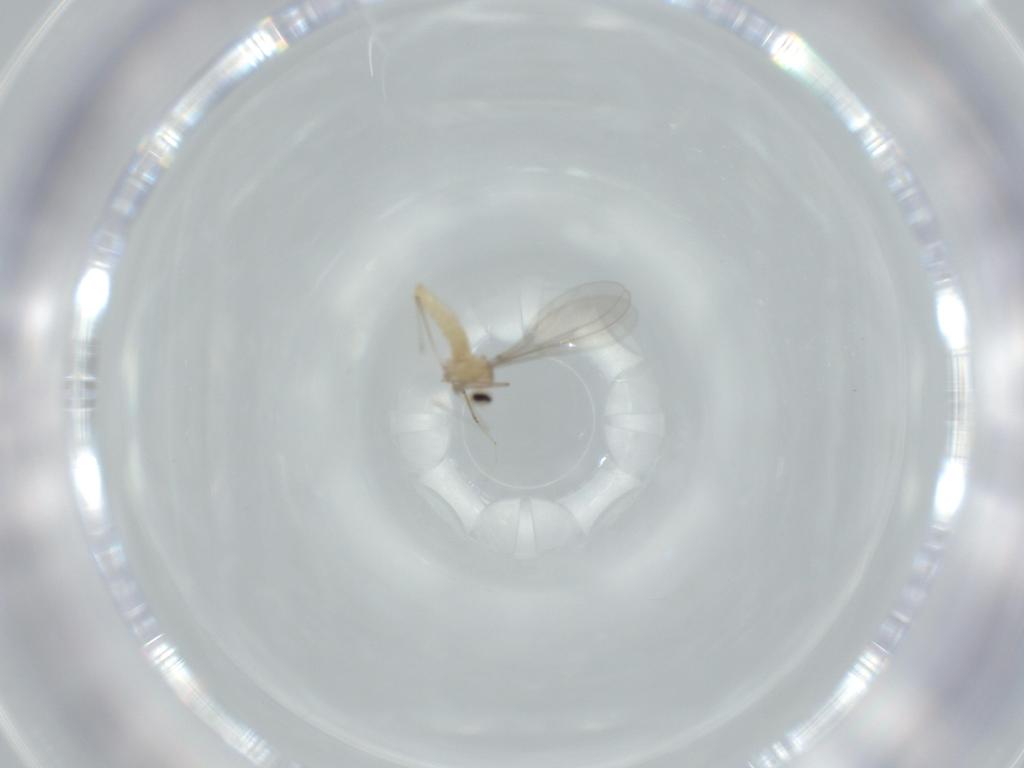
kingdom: Animalia
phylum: Arthropoda
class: Insecta
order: Diptera
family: Cecidomyiidae
